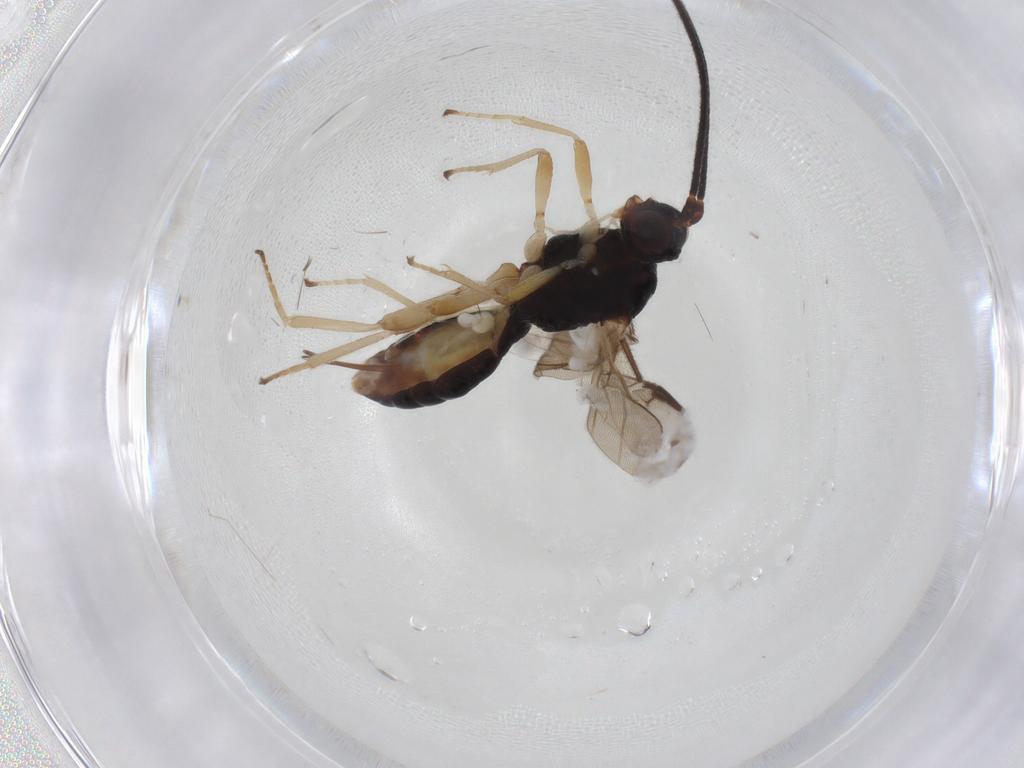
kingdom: Animalia
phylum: Arthropoda
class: Insecta
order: Hymenoptera
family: Braconidae
